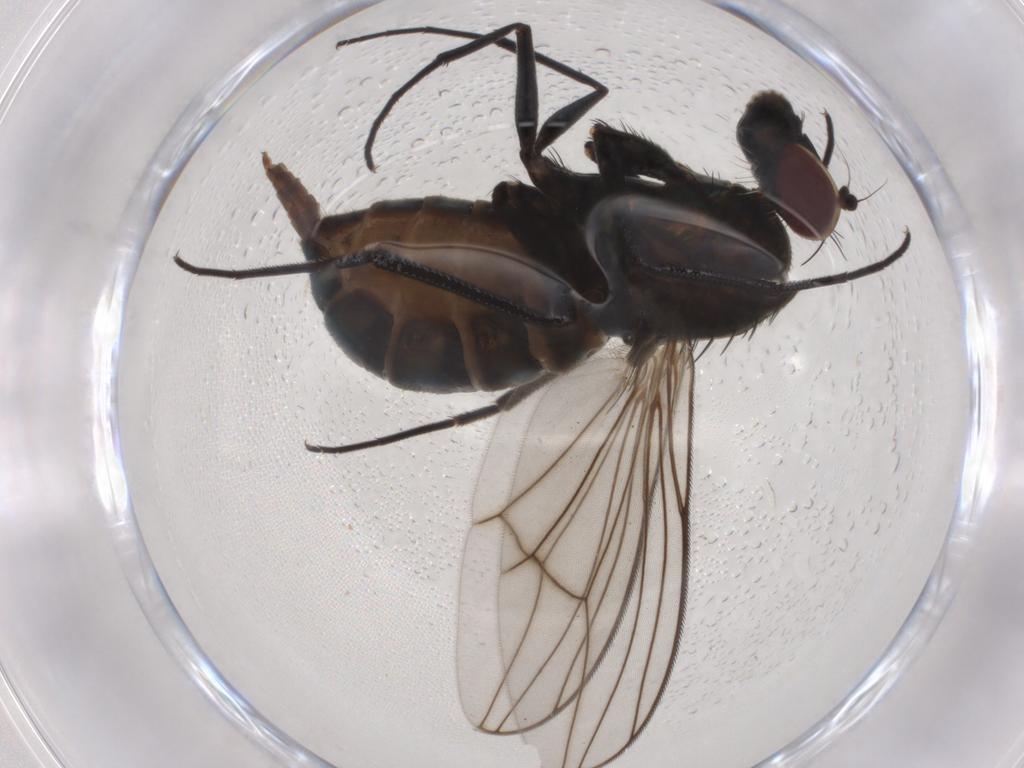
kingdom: Animalia
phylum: Arthropoda
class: Insecta
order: Diptera
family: Dolichopodidae
